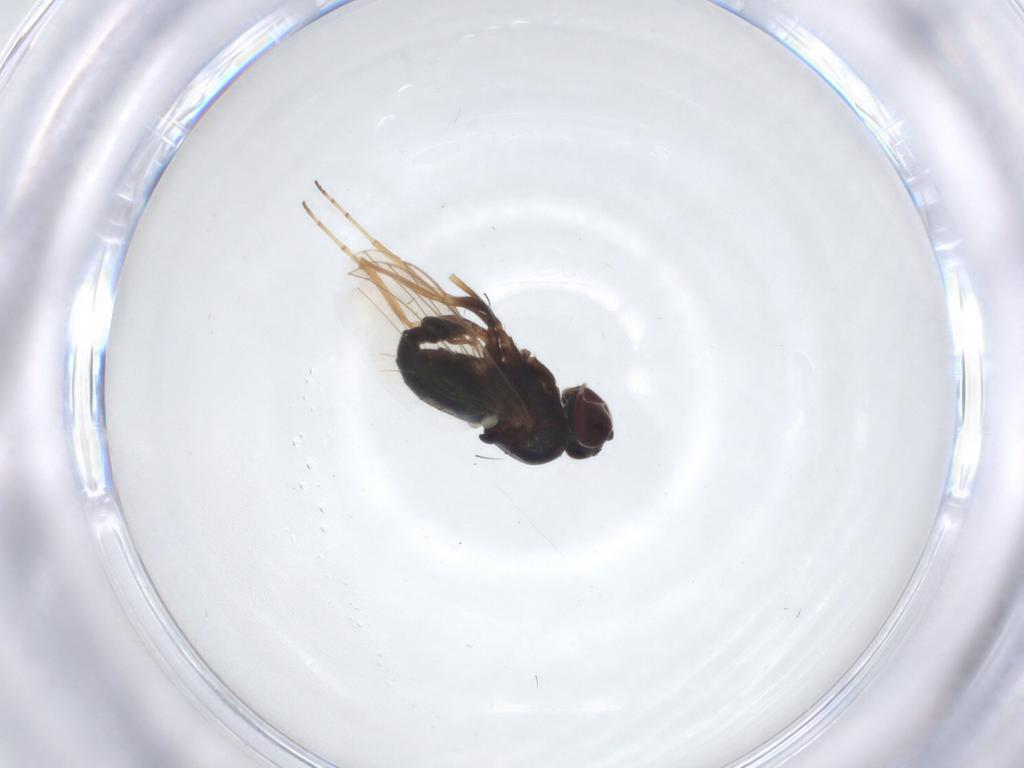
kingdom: Animalia
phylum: Arthropoda
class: Insecta
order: Diptera
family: Dolichopodidae
